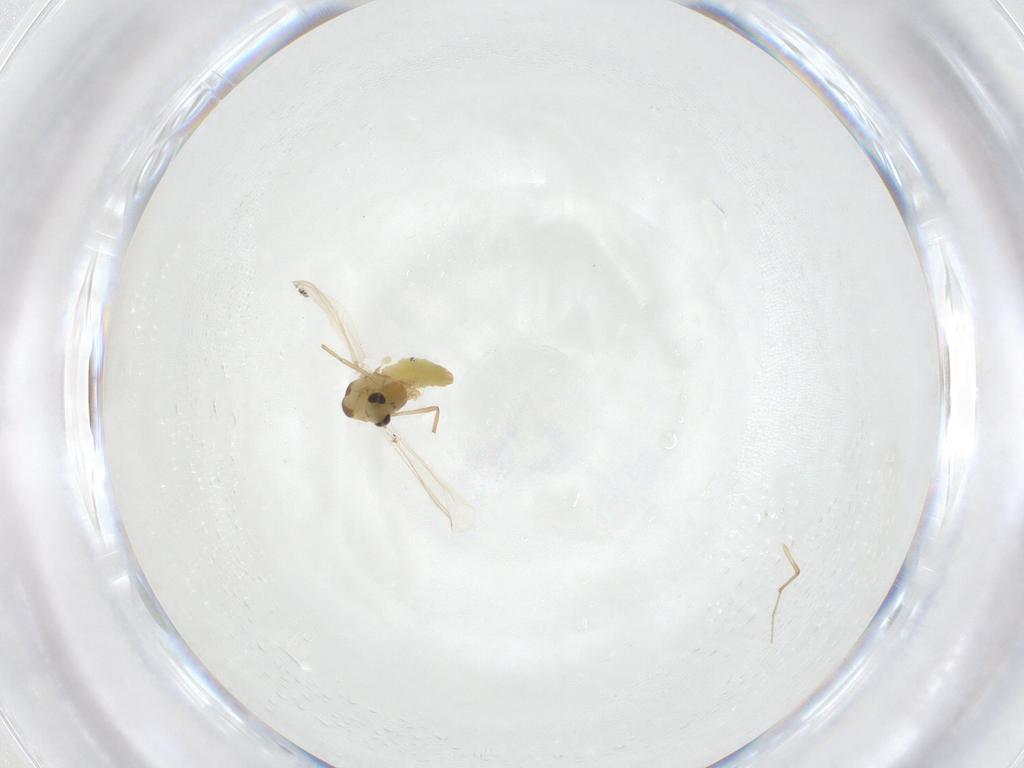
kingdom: Animalia
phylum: Arthropoda
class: Insecta
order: Diptera
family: Chironomidae
